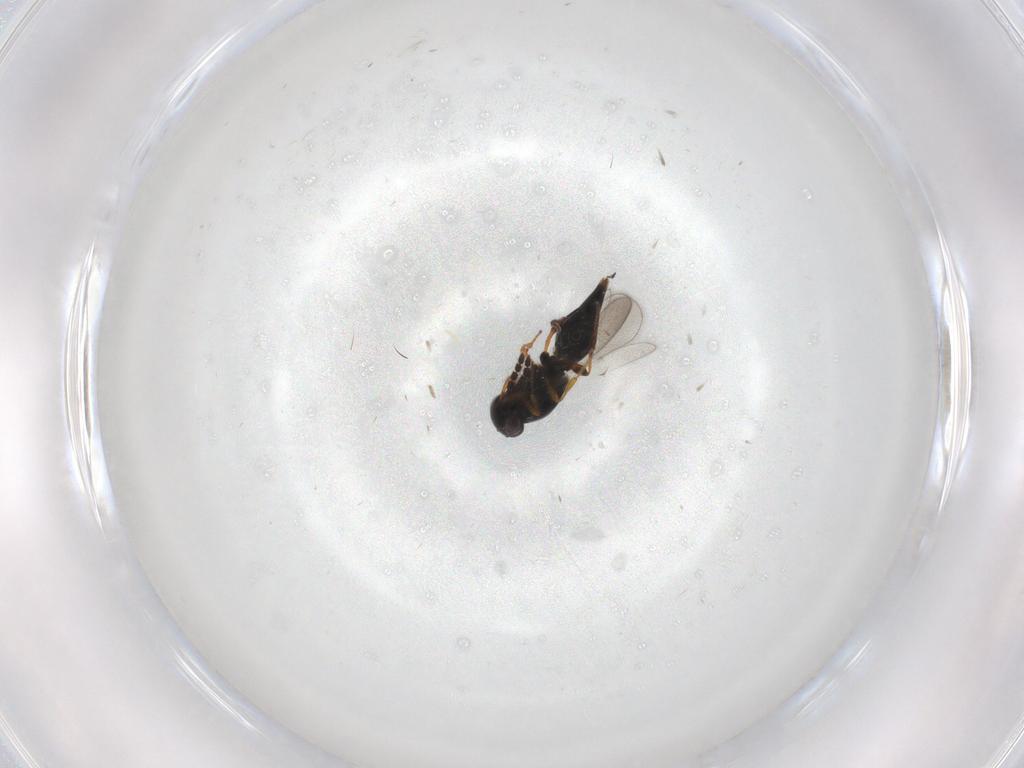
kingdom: Animalia
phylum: Arthropoda
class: Insecta
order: Hymenoptera
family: Platygastridae
